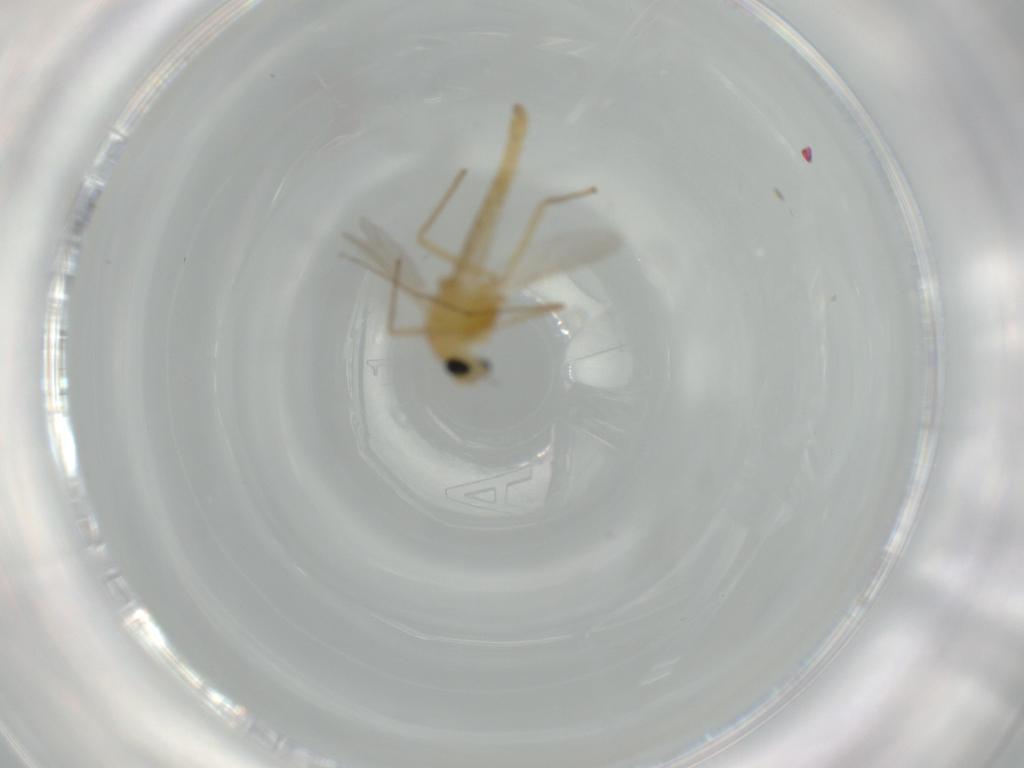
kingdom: Animalia
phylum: Arthropoda
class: Insecta
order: Diptera
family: Chironomidae
